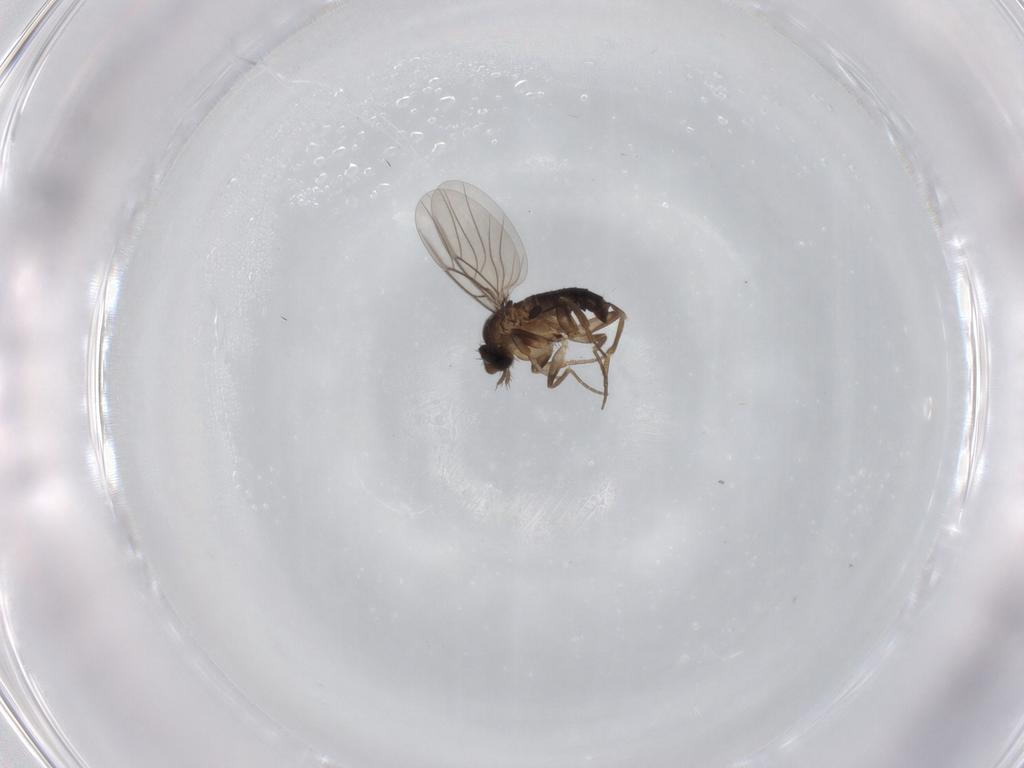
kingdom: Animalia
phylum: Arthropoda
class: Insecta
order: Diptera
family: Phoridae
